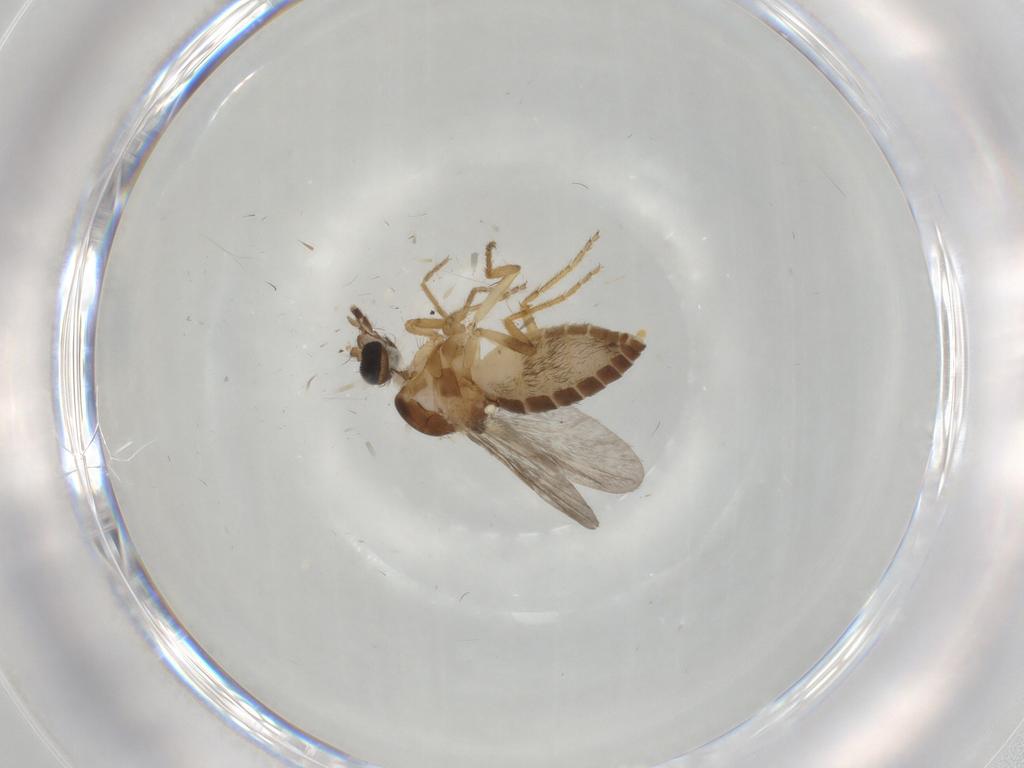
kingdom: Animalia
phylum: Arthropoda
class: Insecta
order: Diptera
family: Ceratopogonidae
